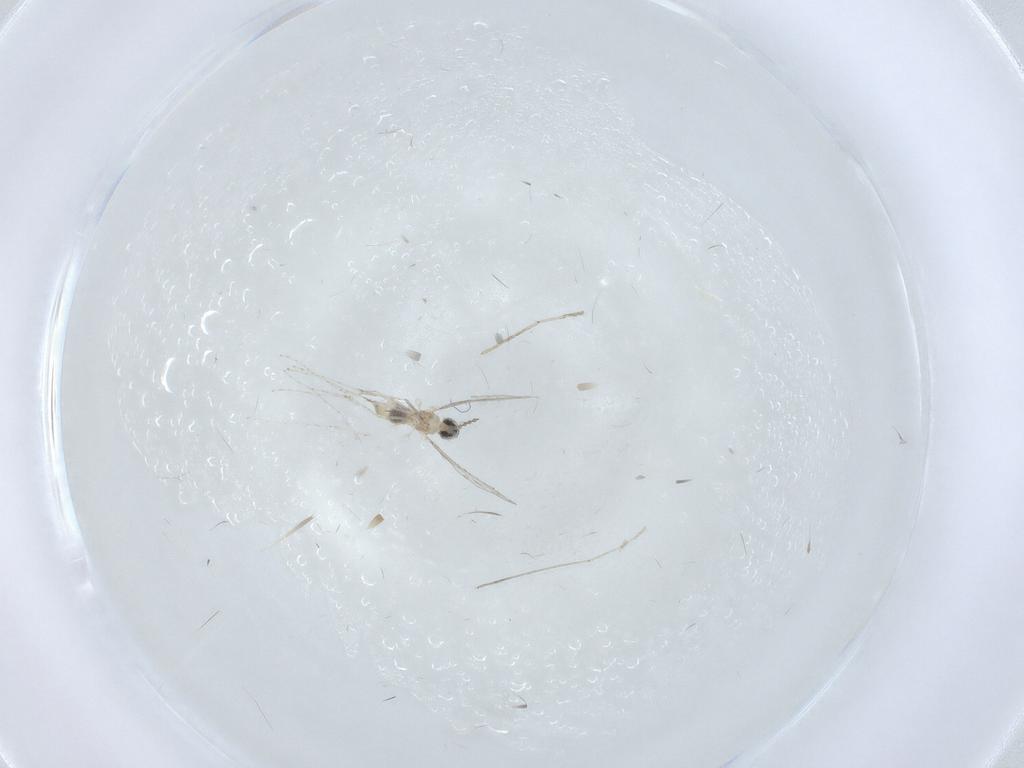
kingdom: Animalia
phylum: Arthropoda
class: Insecta
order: Diptera
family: Cecidomyiidae
